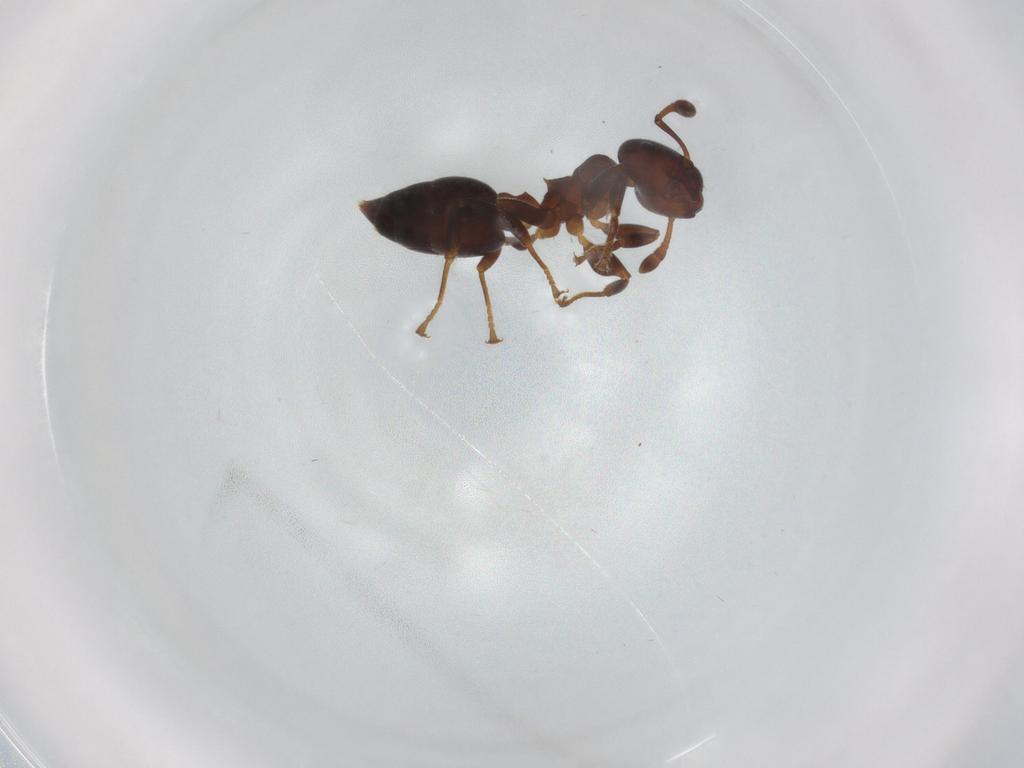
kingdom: Animalia
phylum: Arthropoda
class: Insecta
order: Hymenoptera
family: Formicidae
